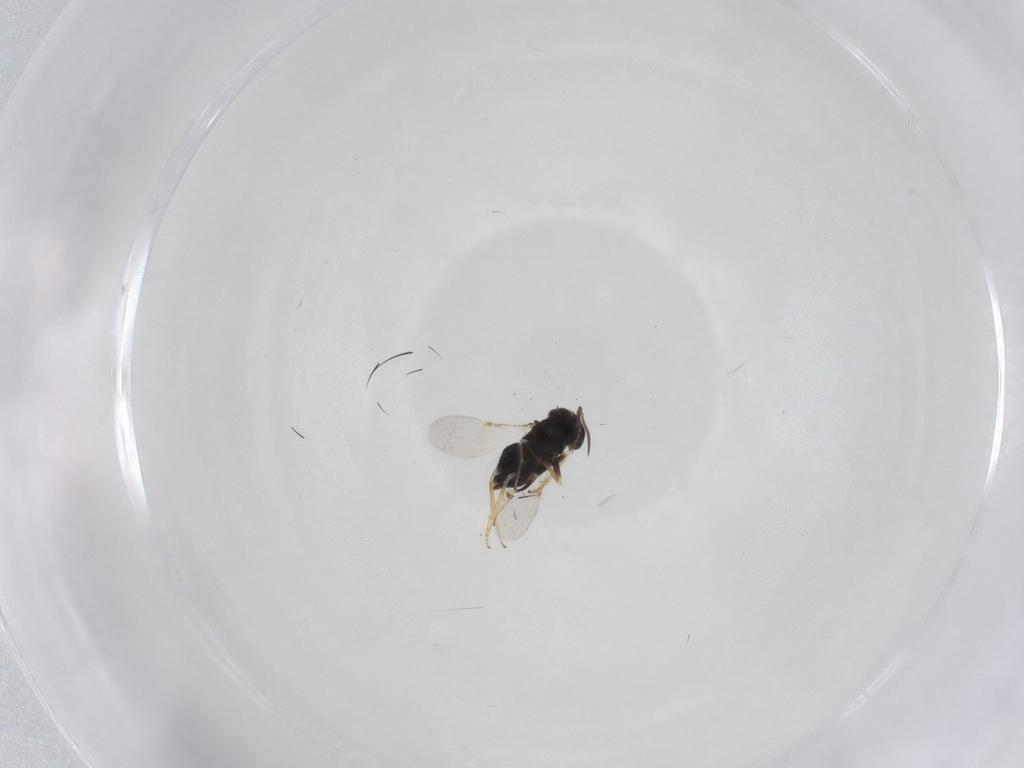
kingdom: Animalia
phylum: Arthropoda
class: Insecta
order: Hymenoptera
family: Encyrtidae
